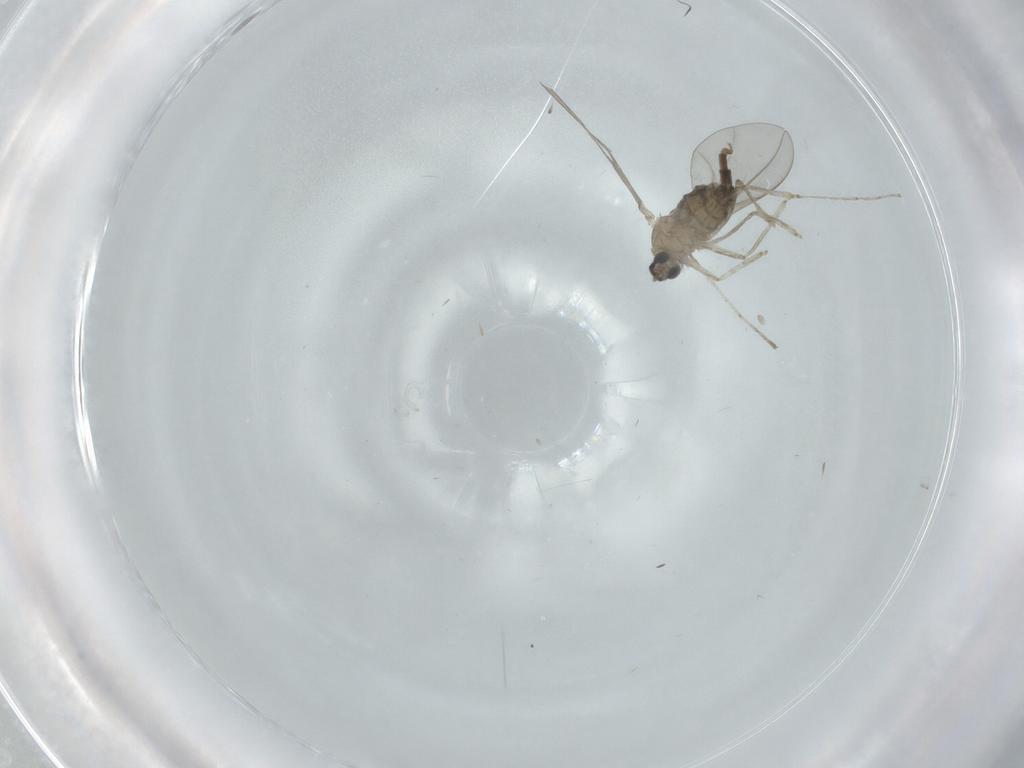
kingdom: Animalia
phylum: Arthropoda
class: Insecta
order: Diptera
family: Cecidomyiidae
